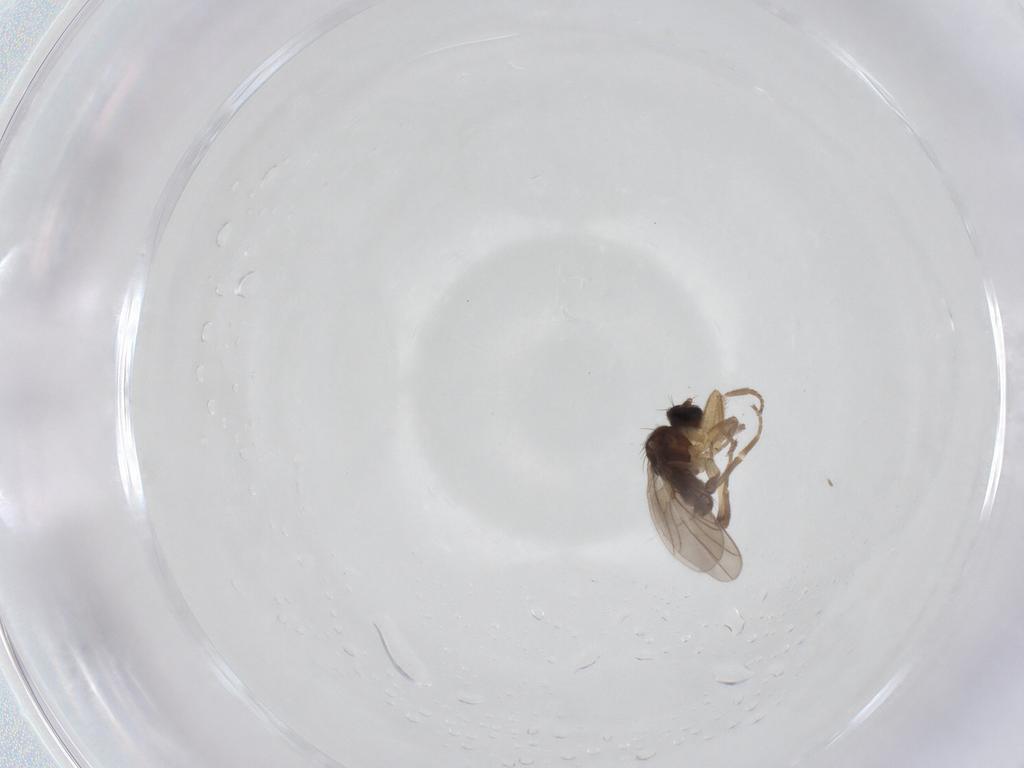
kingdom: Animalia
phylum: Arthropoda
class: Insecta
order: Diptera
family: Hybotidae
